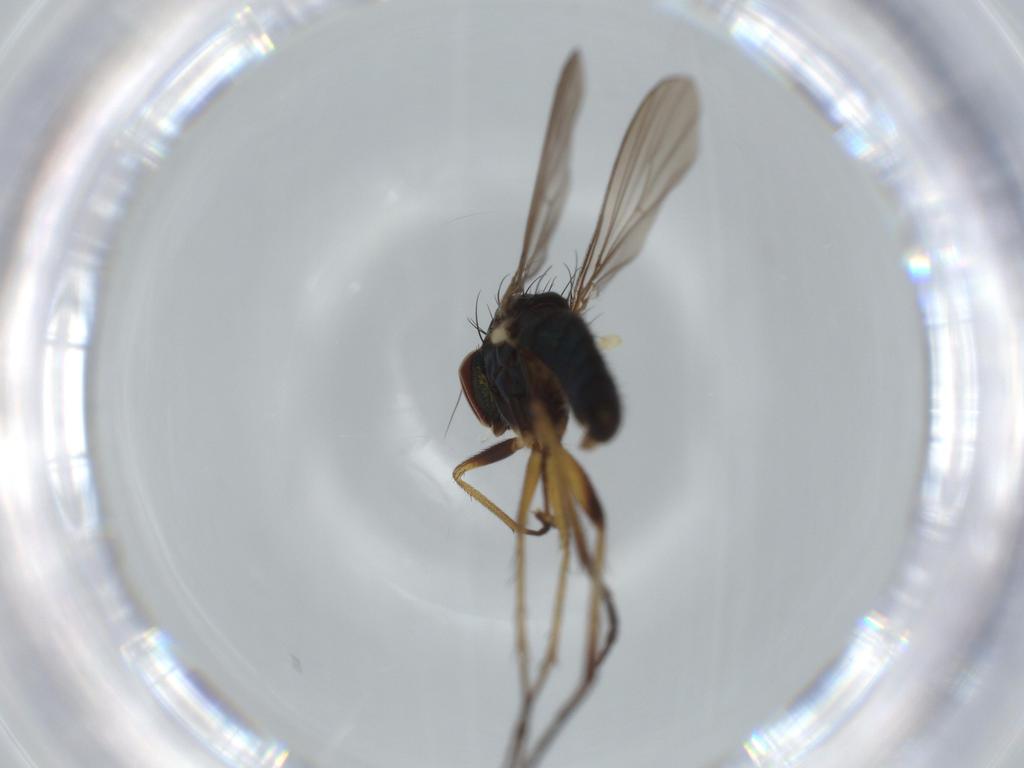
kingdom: Animalia
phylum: Arthropoda
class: Insecta
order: Diptera
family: Dolichopodidae
